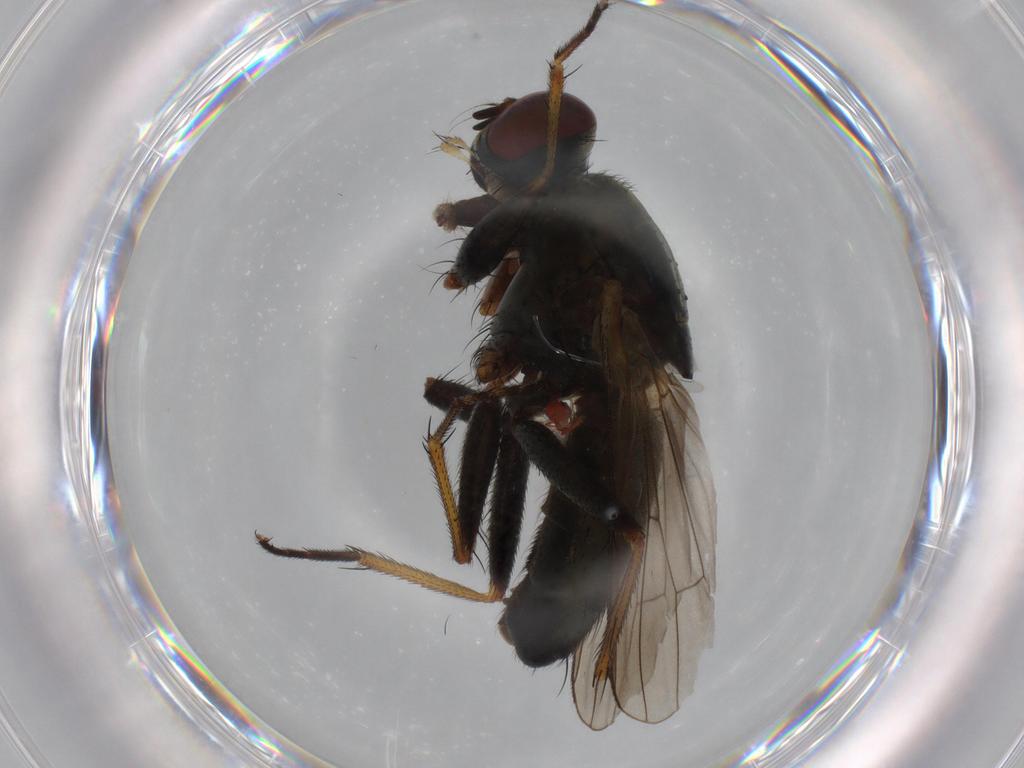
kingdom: Animalia
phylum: Arthropoda
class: Insecta
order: Diptera
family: Muscidae
